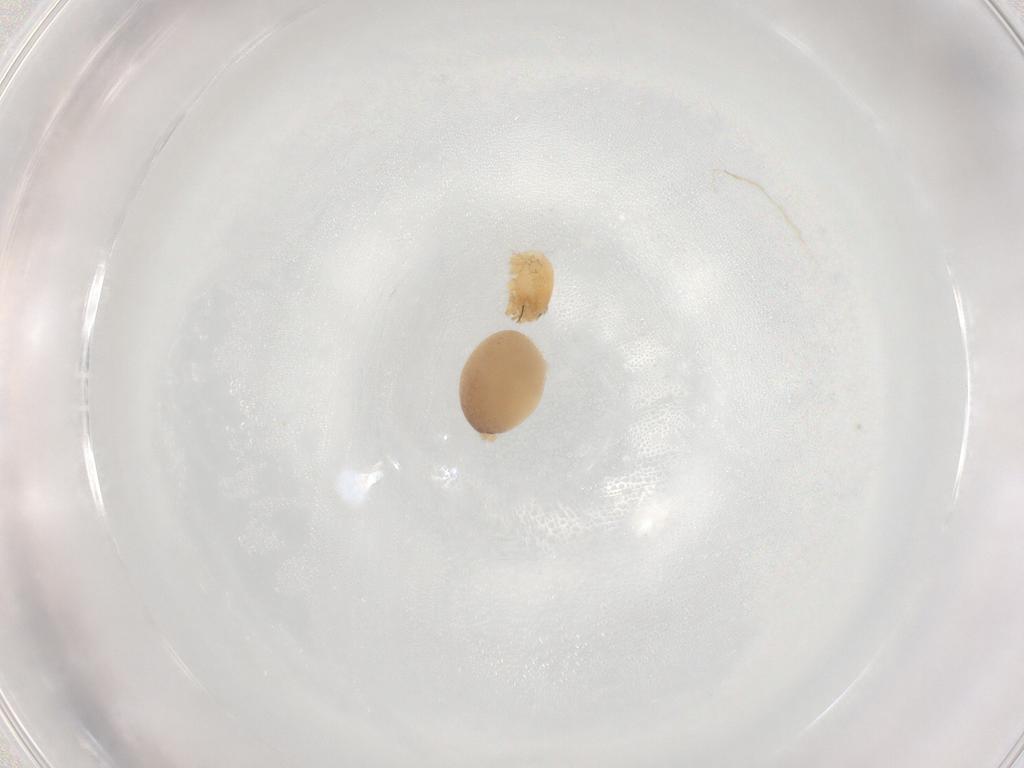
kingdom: Animalia
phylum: Arthropoda
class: Arachnida
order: Araneae
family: Oonopidae
